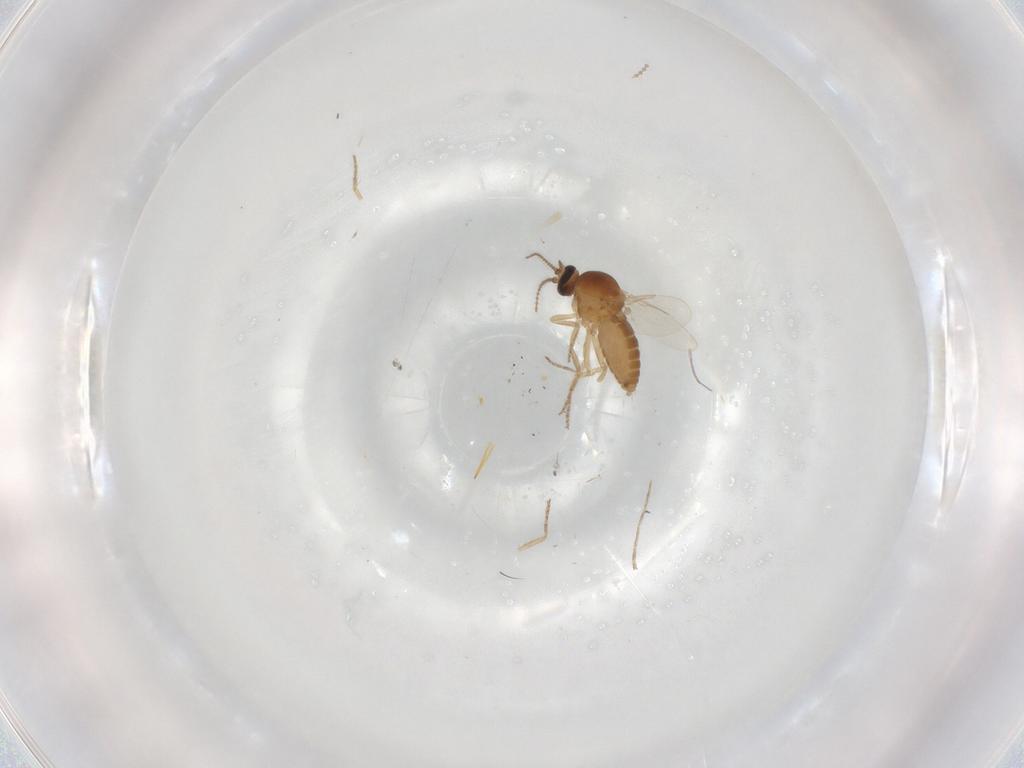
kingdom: Animalia
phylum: Arthropoda
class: Insecta
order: Diptera
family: Ceratopogonidae
